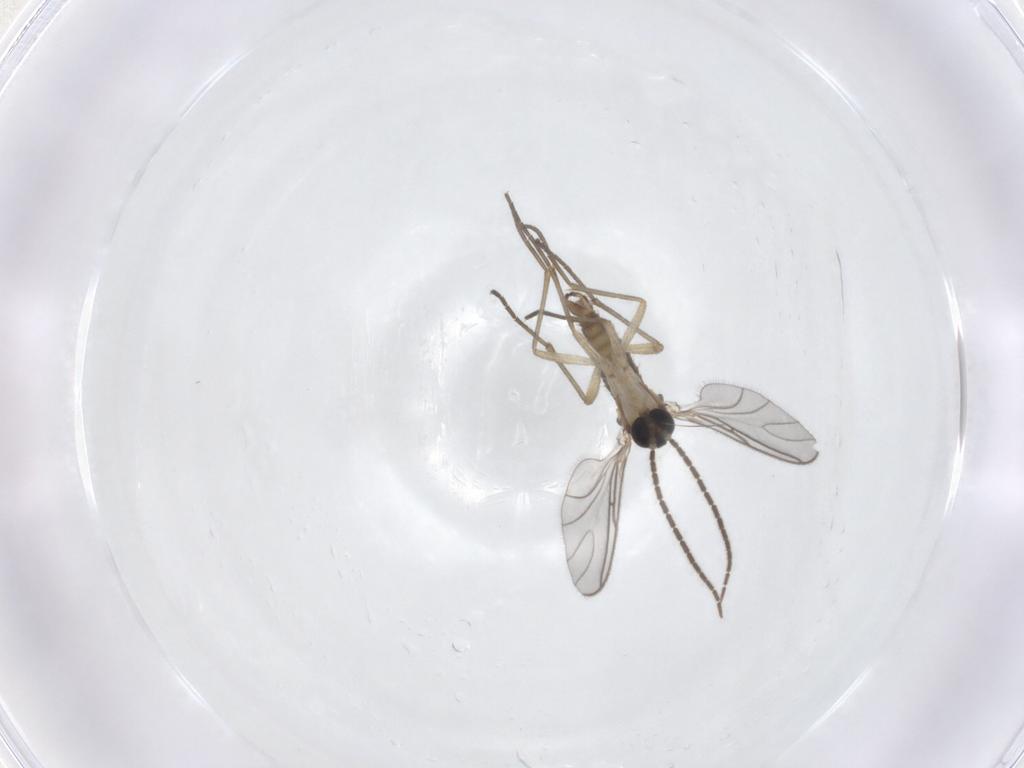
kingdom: Animalia
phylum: Arthropoda
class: Insecta
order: Diptera
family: Sciaridae
